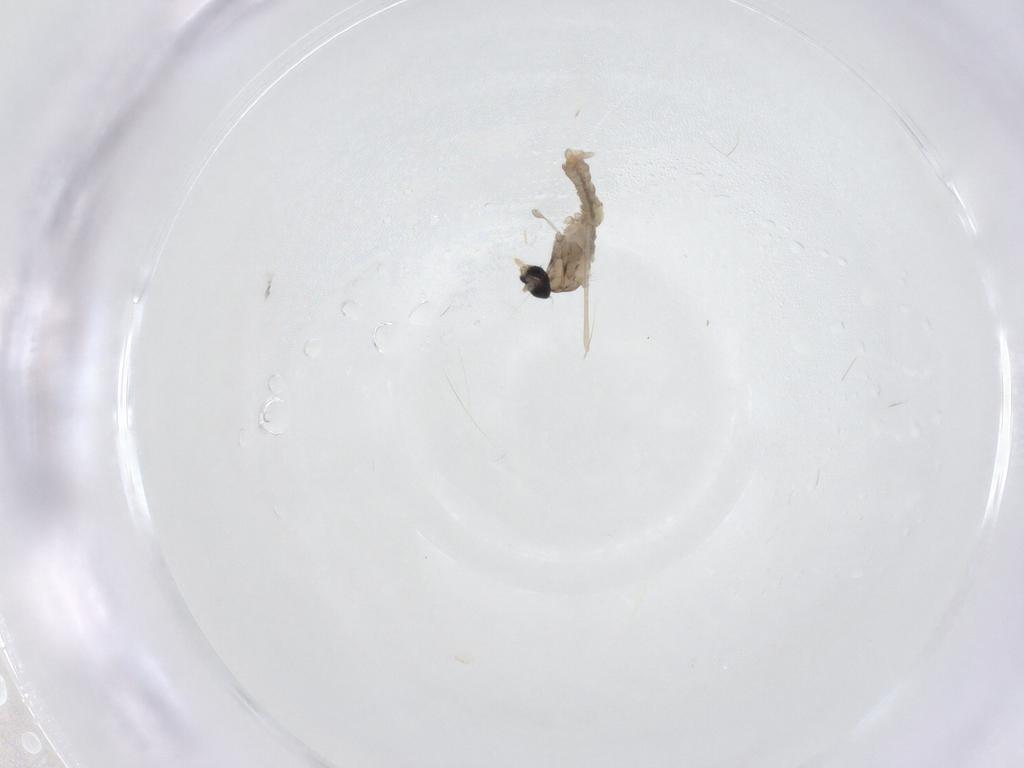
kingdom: Animalia
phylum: Arthropoda
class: Insecta
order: Diptera
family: Cecidomyiidae
